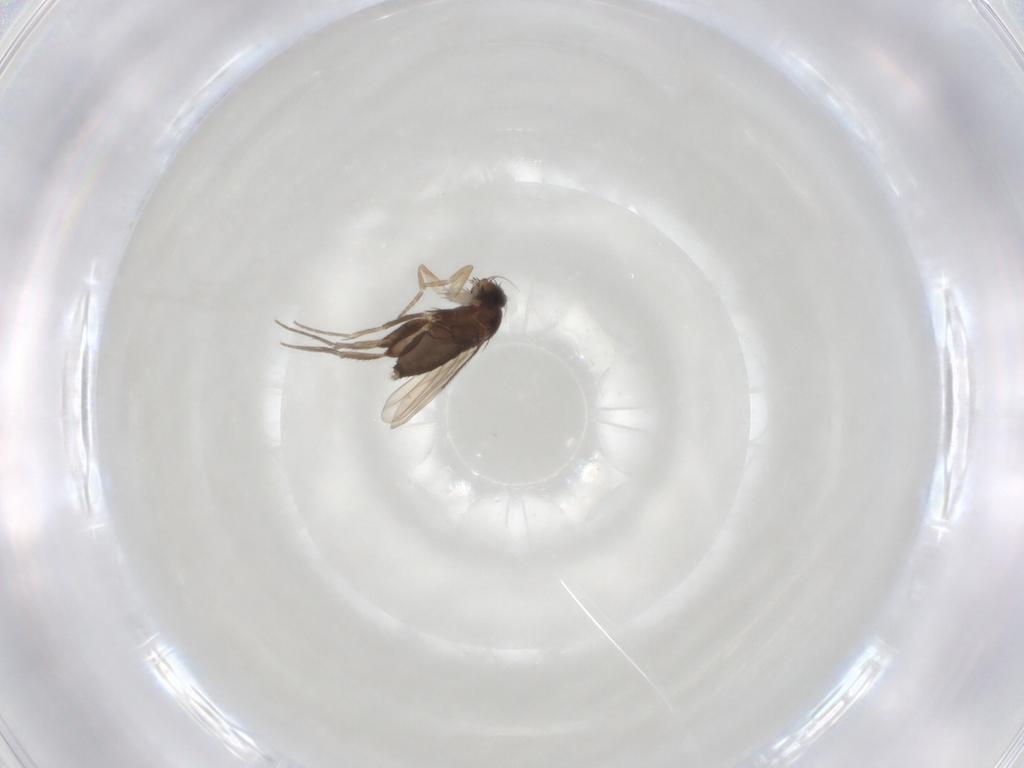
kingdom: Animalia
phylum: Arthropoda
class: Insecta
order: Diptera
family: Phoridae
